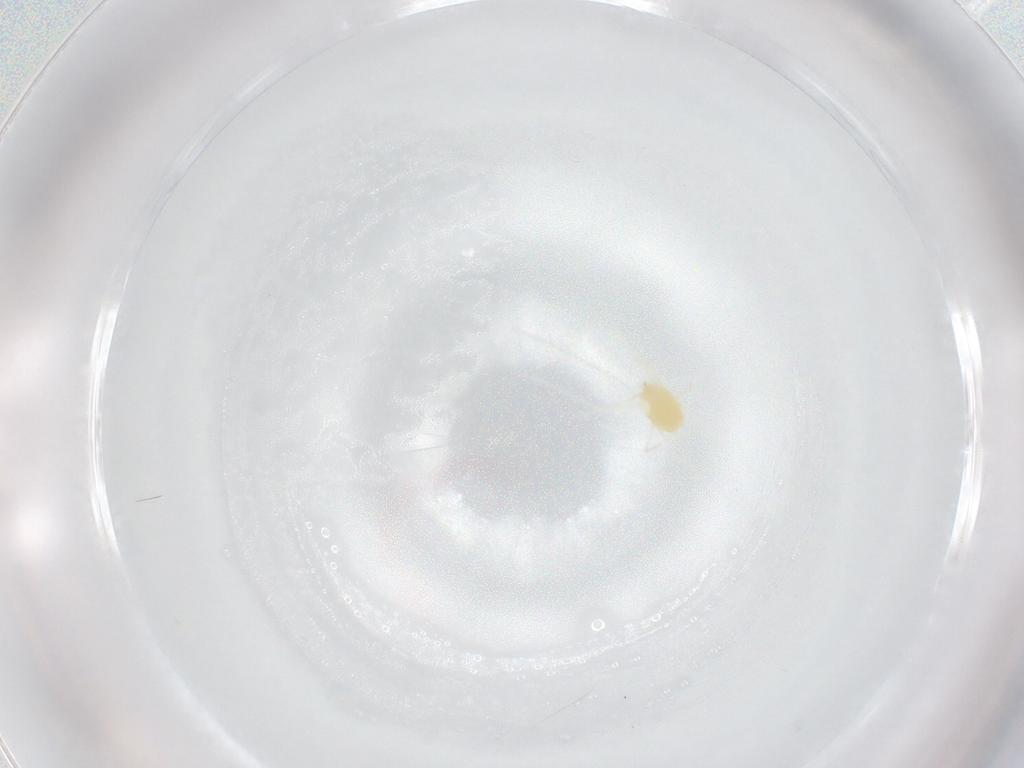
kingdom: Animalia
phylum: Arthropoda
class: Arachnida
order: Trombidiformes
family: Tetranychidae
